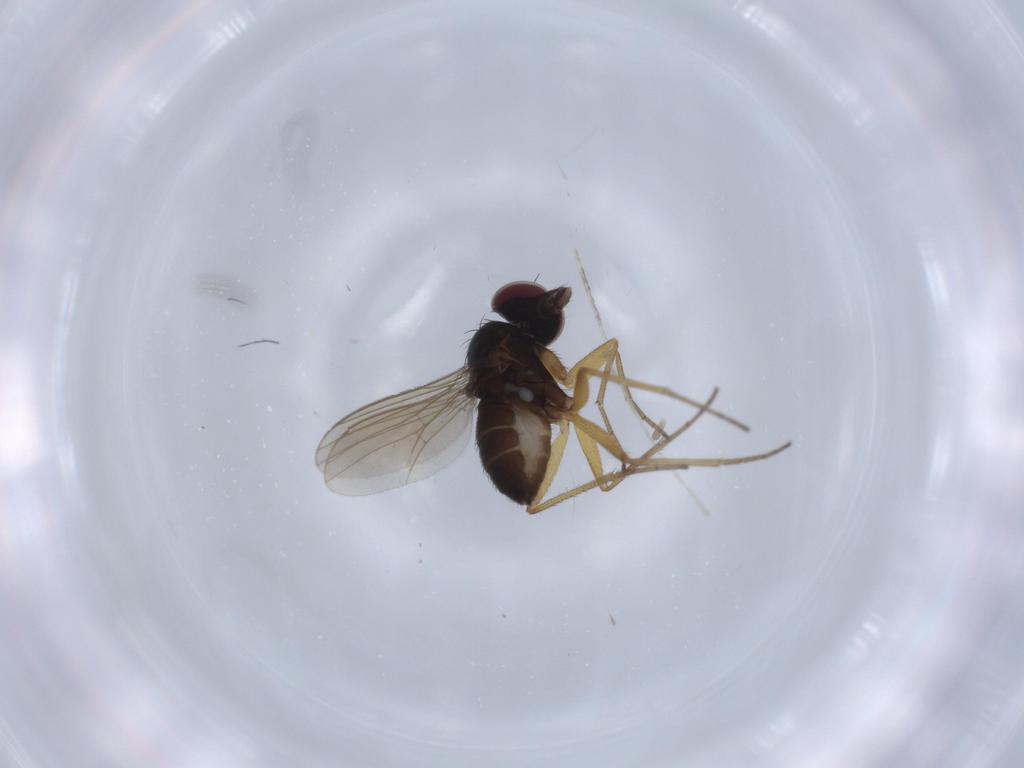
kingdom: Animalia
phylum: Arthropoda
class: Insecta
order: Diptera
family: Dolichopodidae
